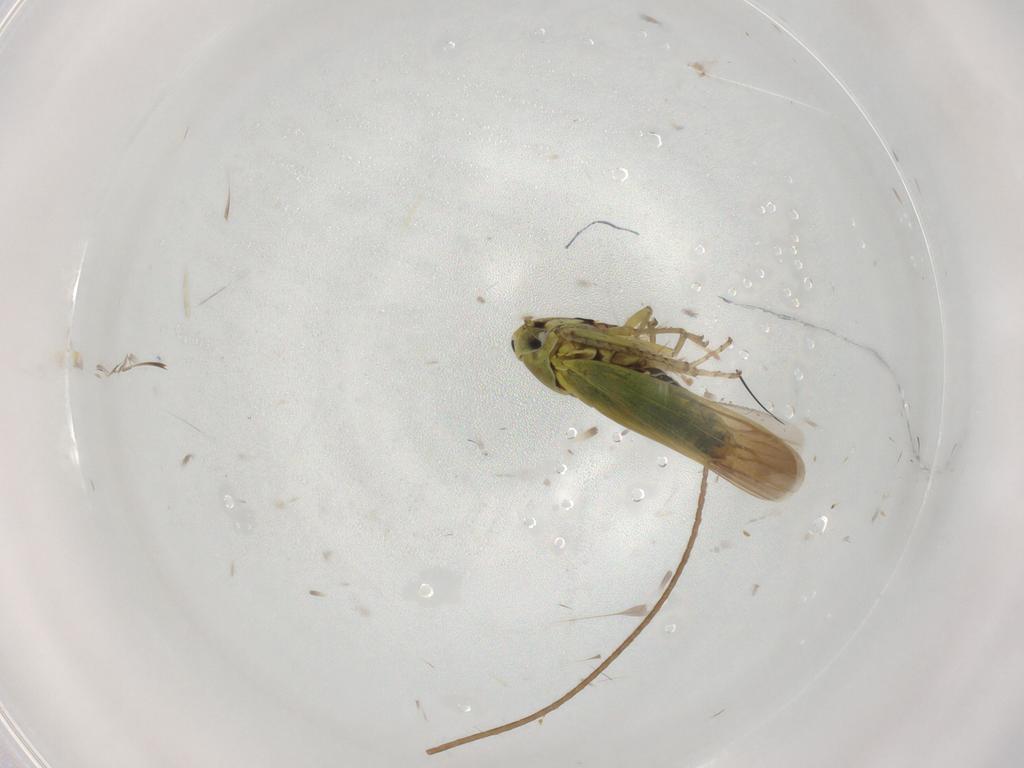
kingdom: Animalia
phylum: Arthropoda
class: Insecta
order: Hemiptera
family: Cicadellidae
